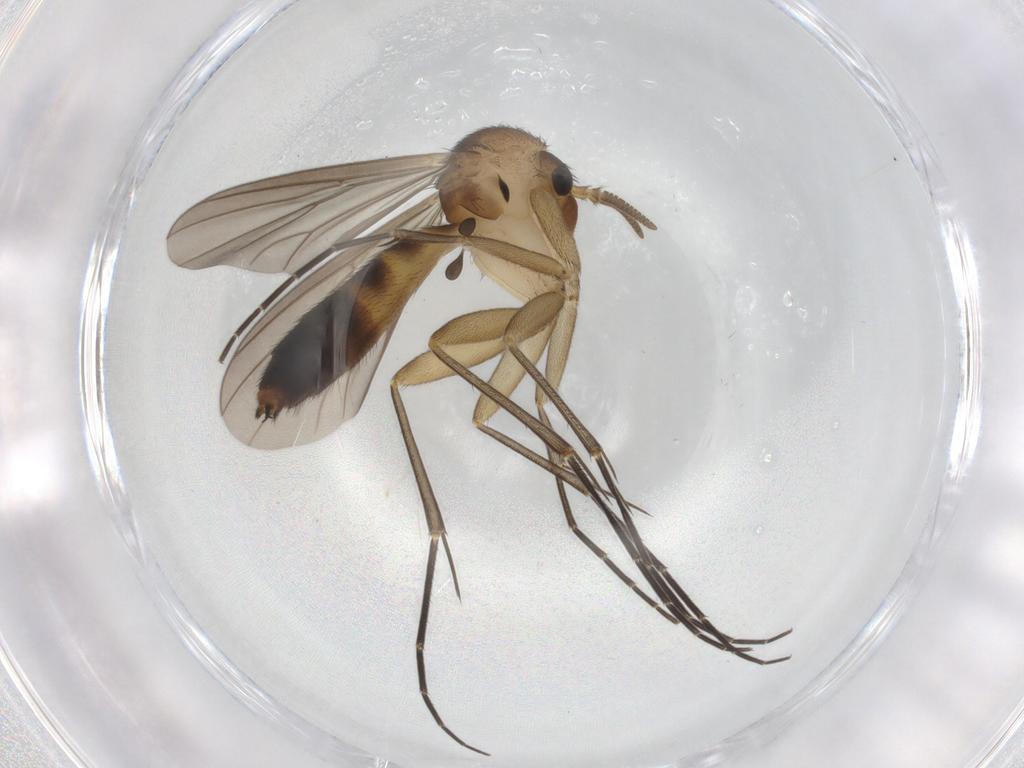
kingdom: Animalia
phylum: Arthropoda
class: Insecta
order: Diptera
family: Mycetophilidae
